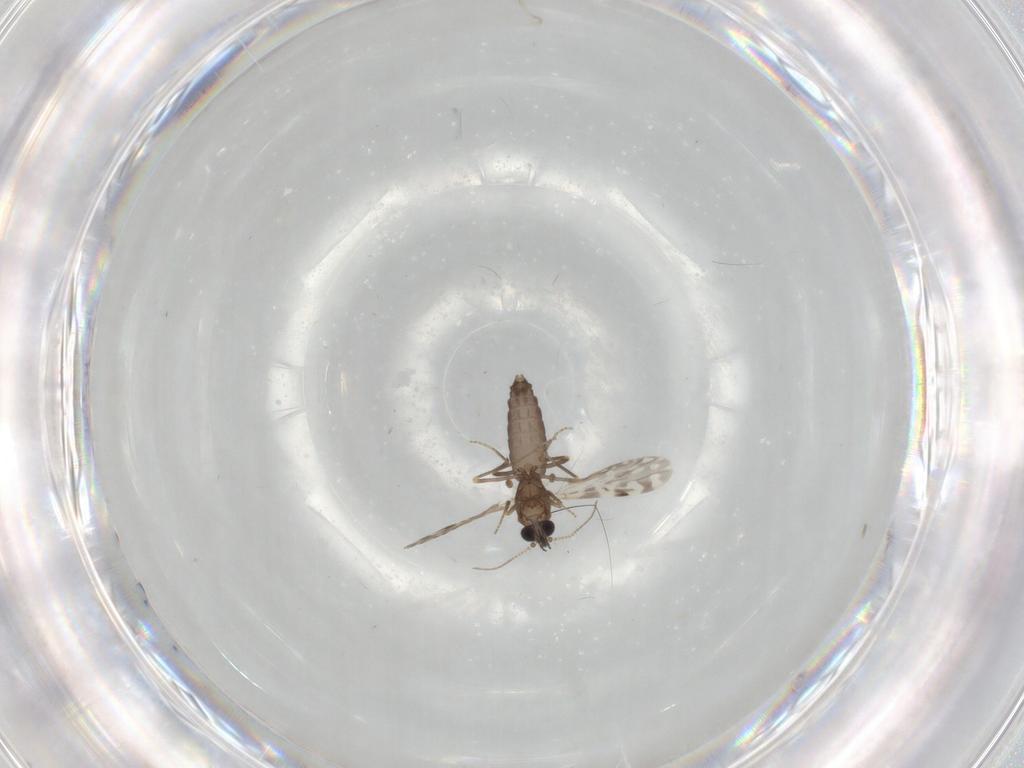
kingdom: Animalia
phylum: Arthropoda
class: Insecta
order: Diptera
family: Ceratopogonidae
